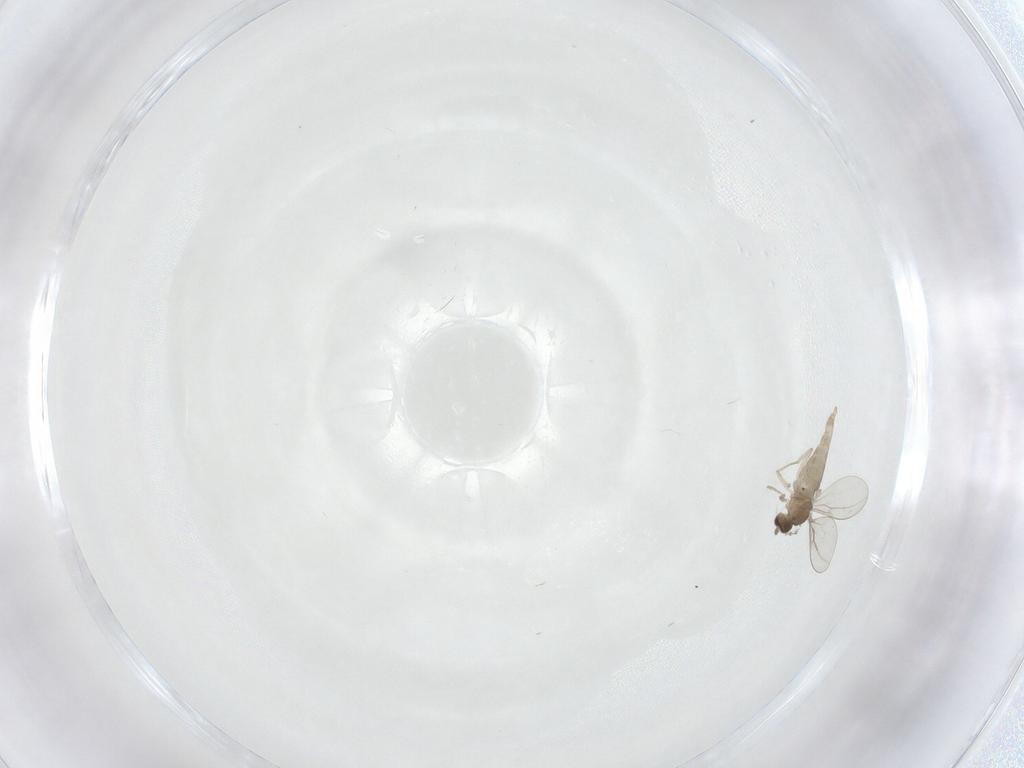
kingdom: Animalia
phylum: Arthropoda
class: Insecta
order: Diptera
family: Cecidomyiidae
